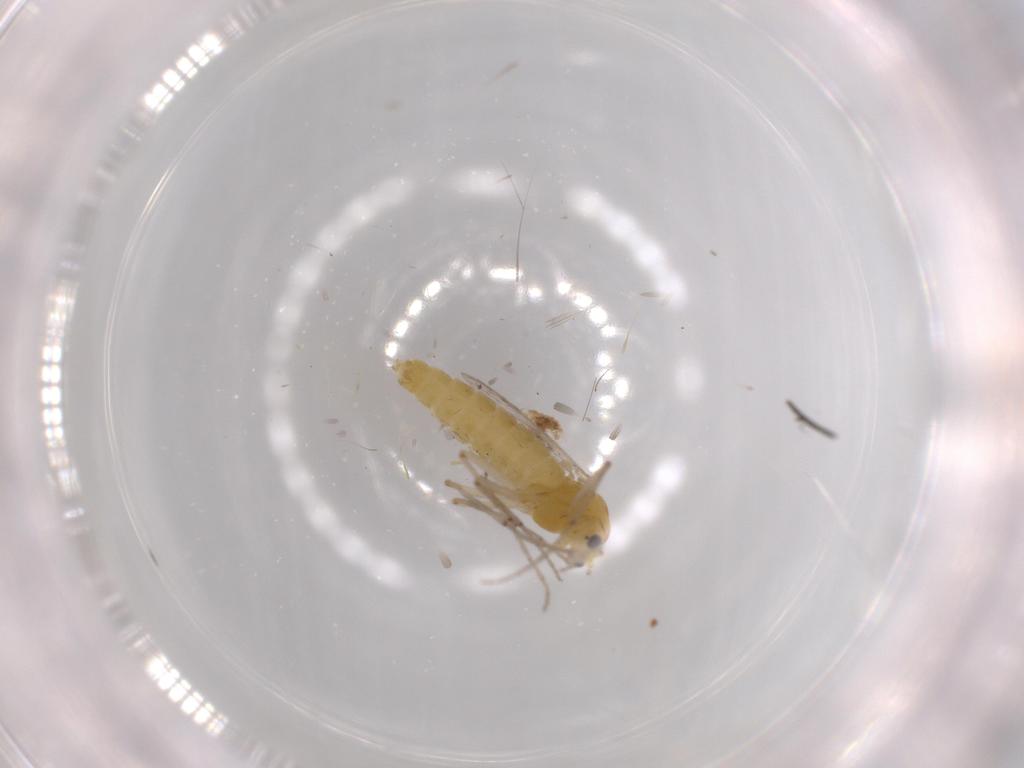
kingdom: Animalia
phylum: Arthropoda
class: Insecta
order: Diptera
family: Chironomidae
